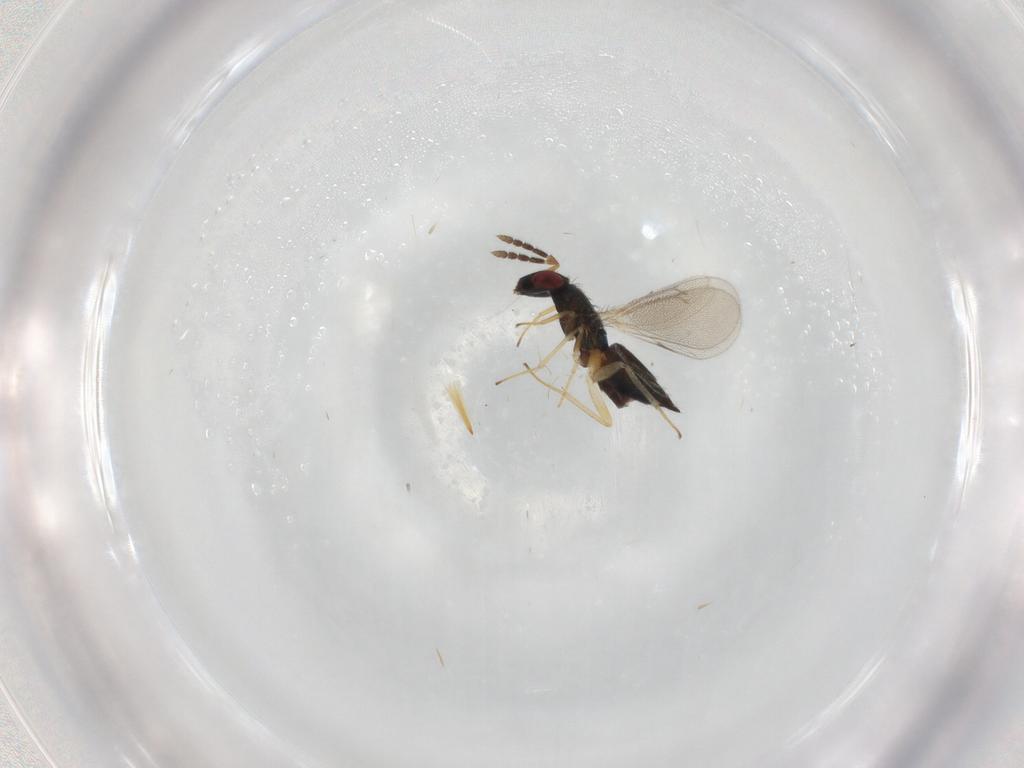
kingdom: Animalia
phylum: Arthropoda
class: Insecta
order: Hymenoptera
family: Eulophidae
